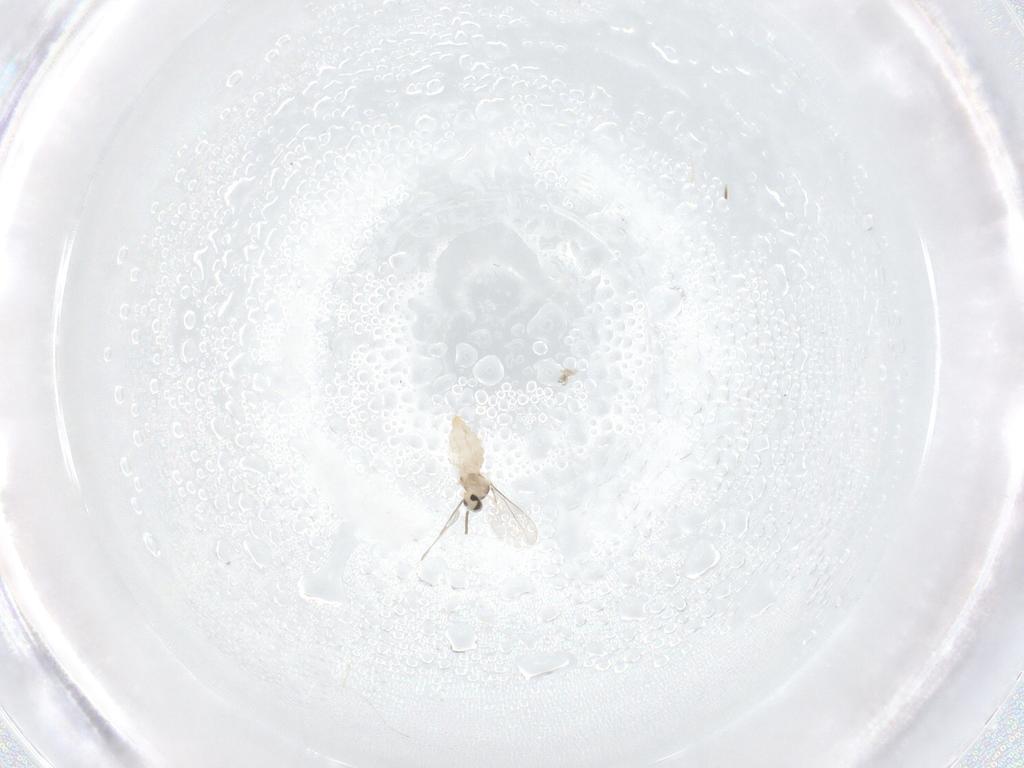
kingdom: Animalia
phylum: Arthropoda
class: Insecta
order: Diptera
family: Cecidomyiidae
